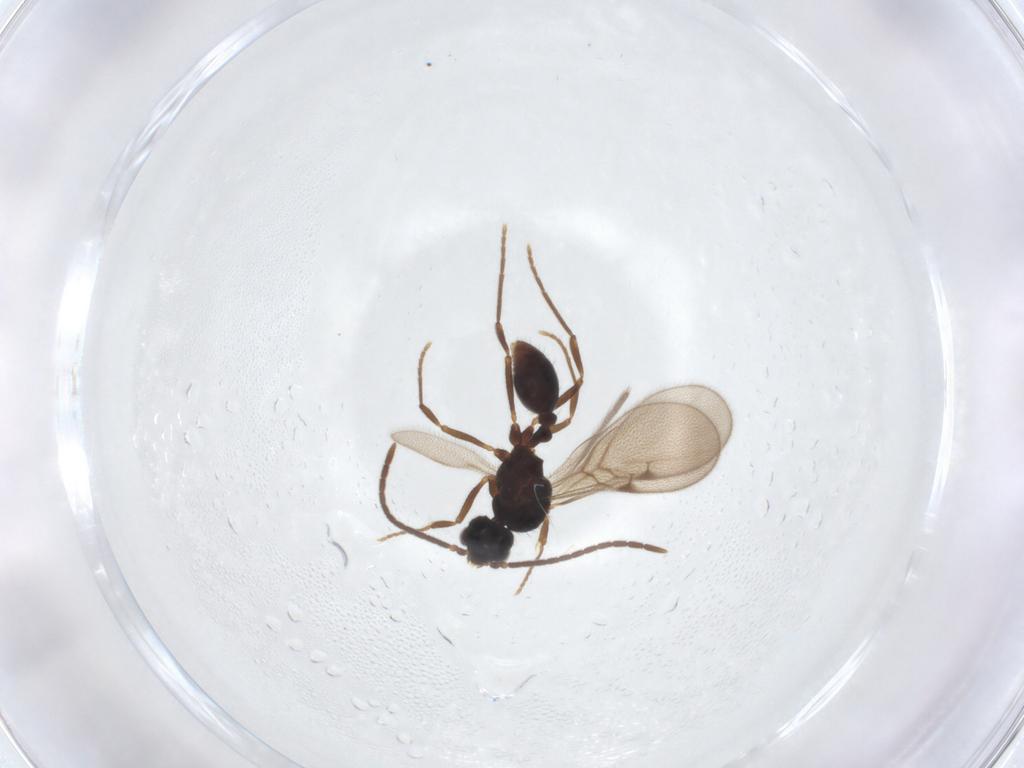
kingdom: Animalia
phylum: Arthropoda
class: Insecta
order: Hymenoptera
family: Formicidae
